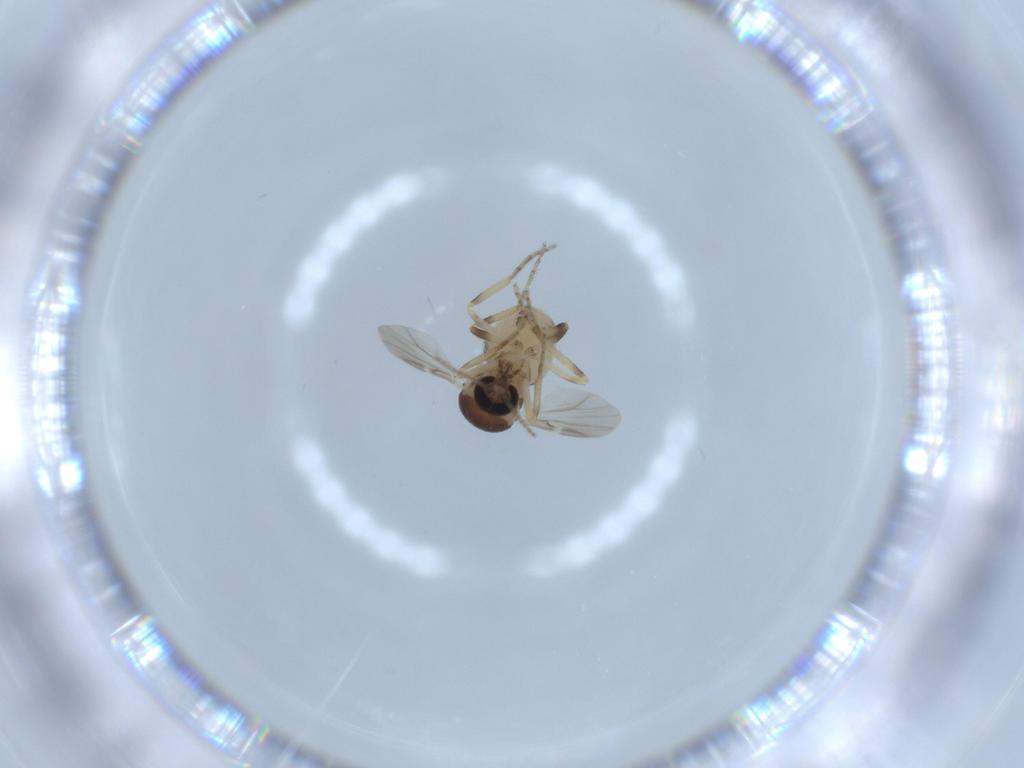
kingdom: Animalia
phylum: Arthropoda
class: Insecta
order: Diptera
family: Ceratopogonidae
